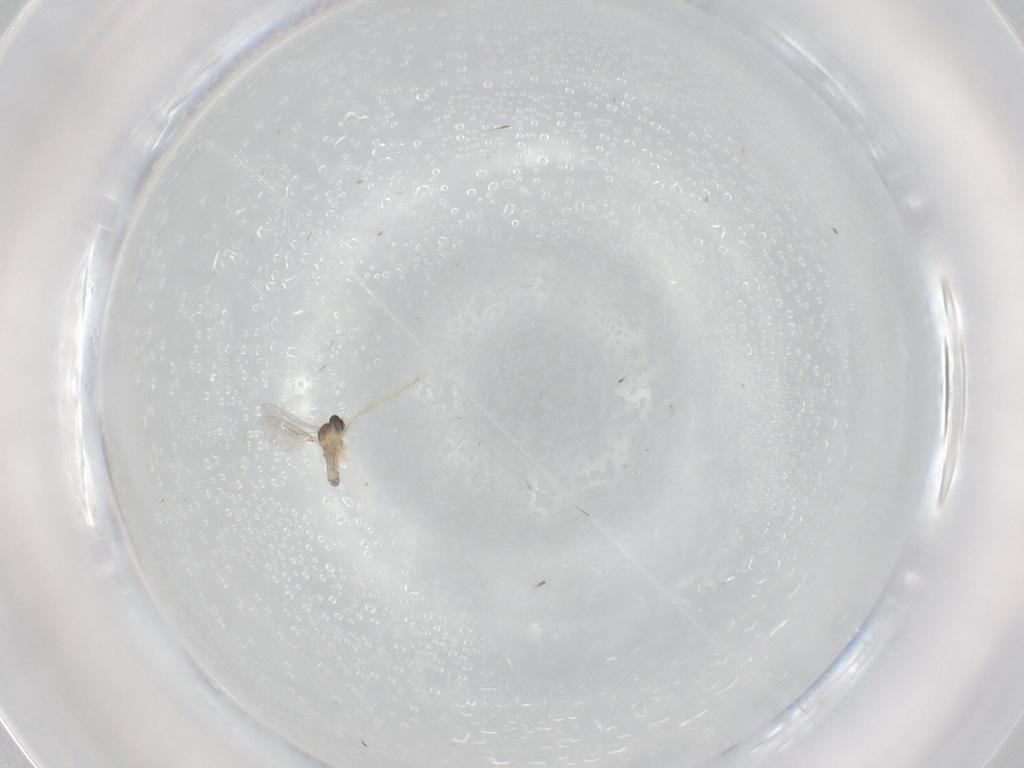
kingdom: Animalia
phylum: Arthropoda
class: Insecta
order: Diptera
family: Chironomidae
